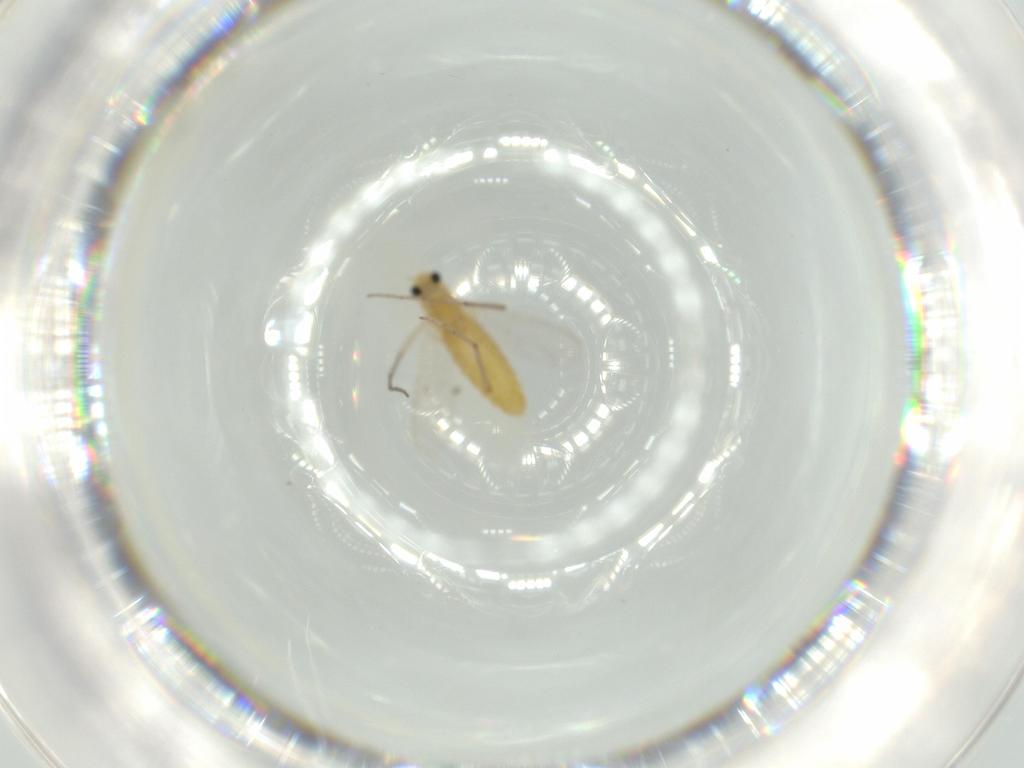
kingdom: Animalia
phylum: Arthropoda
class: Insecta
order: Diptera
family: Chironomidae
